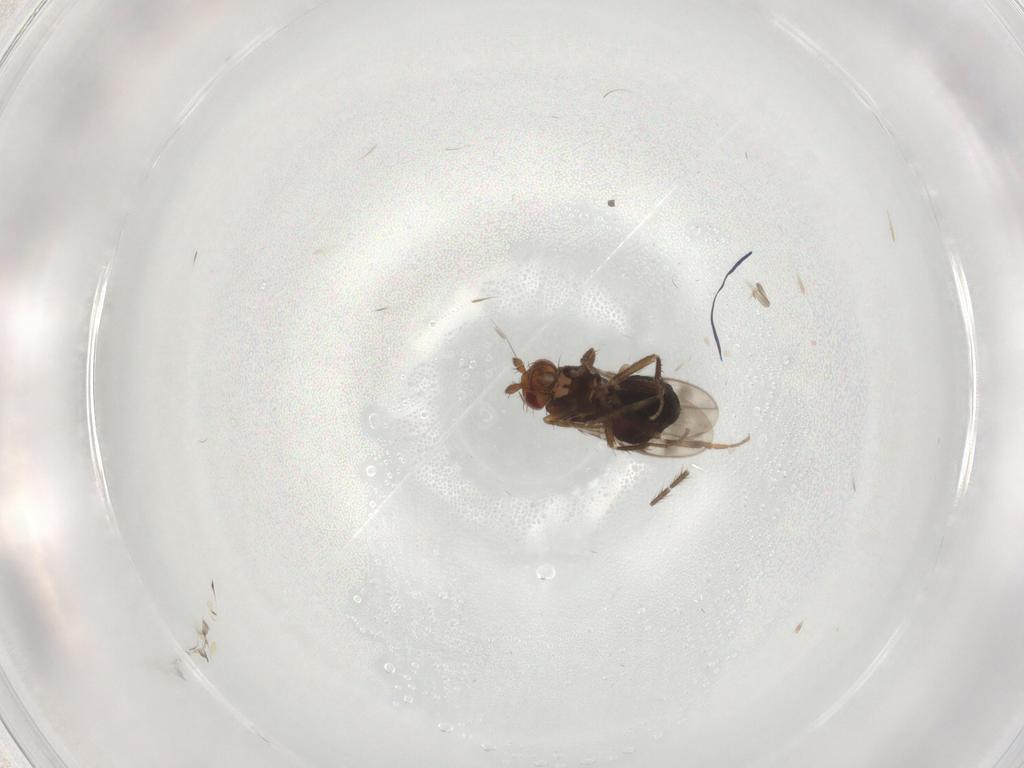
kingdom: Animalia
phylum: Arthropoda
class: Insecta
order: Diptera
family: Sphaeroceridae
